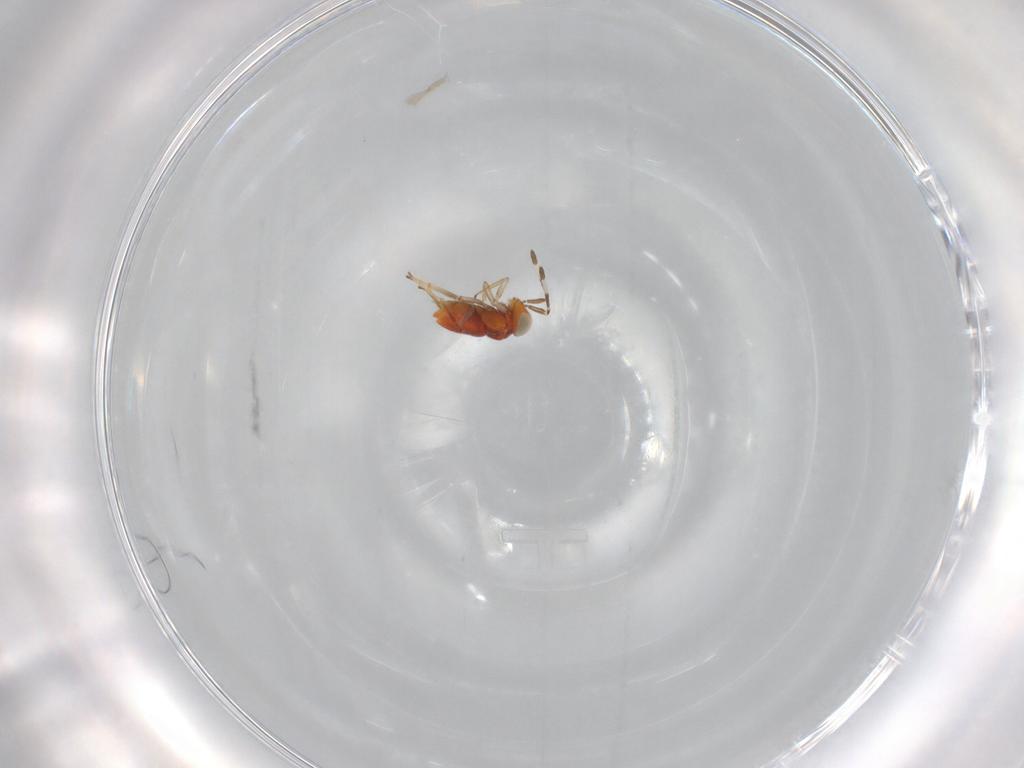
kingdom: Animalia
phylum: Arthropoda
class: Insecta
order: Hymenoptera
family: Encyrtidae
